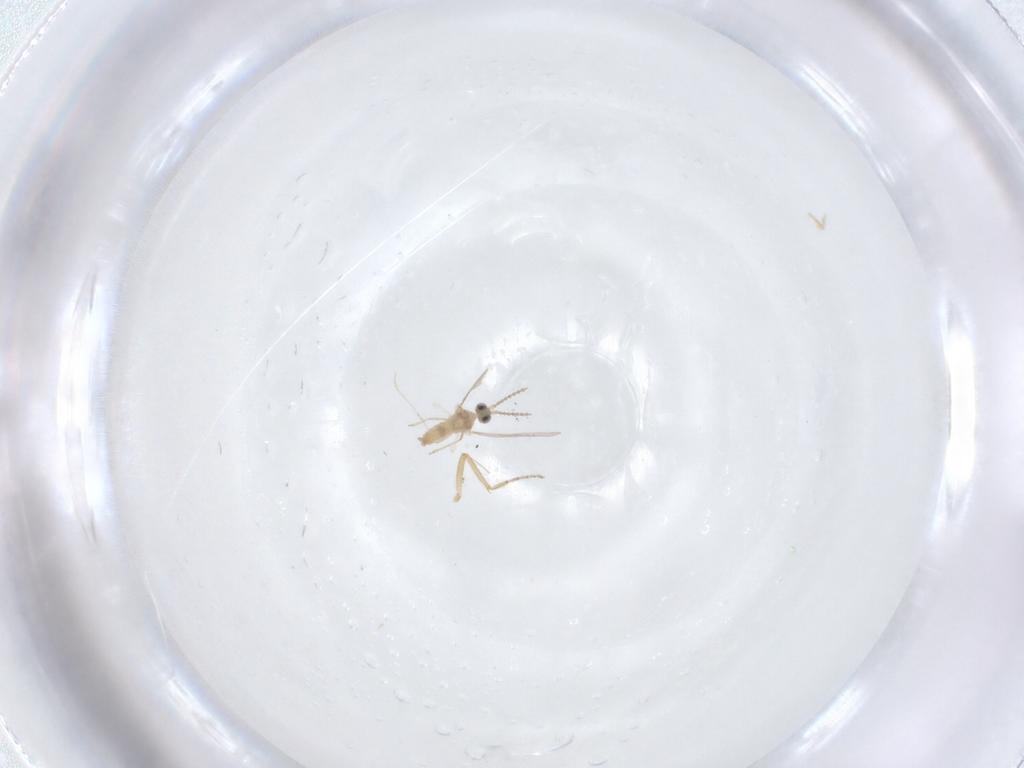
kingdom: Animalia
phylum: Arthropoda
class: Insecta
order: Diptera
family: Cecidomyiidae
